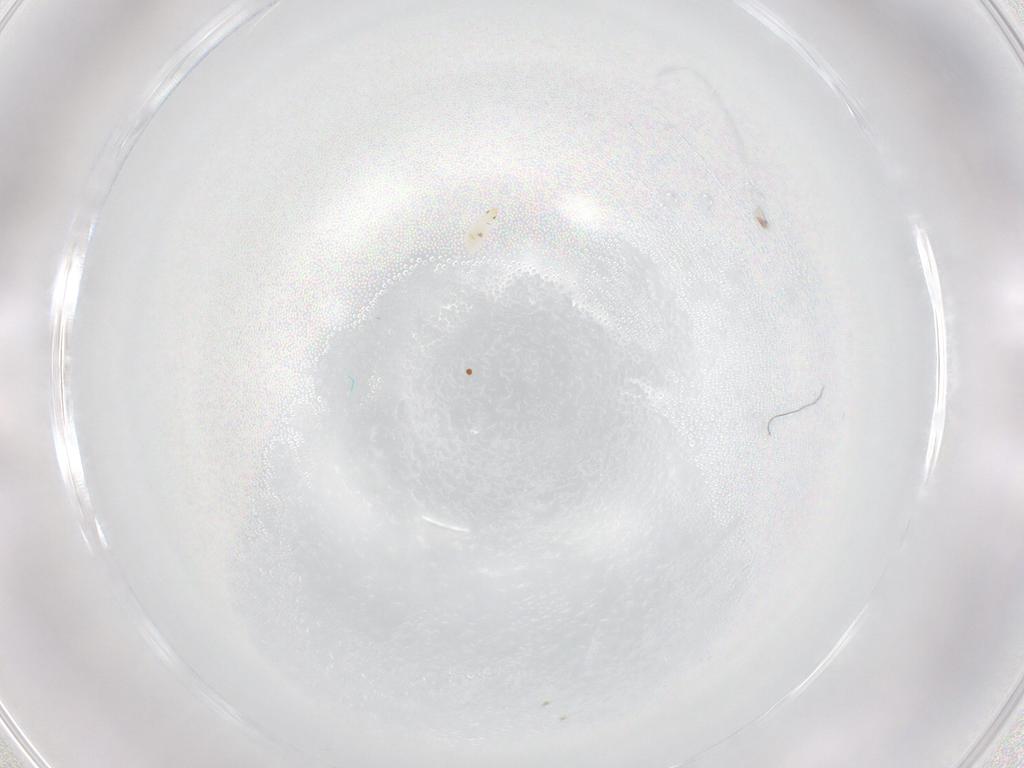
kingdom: Animalia
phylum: Arthropoda
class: Insecta
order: Diptera
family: Stratiomyidae
